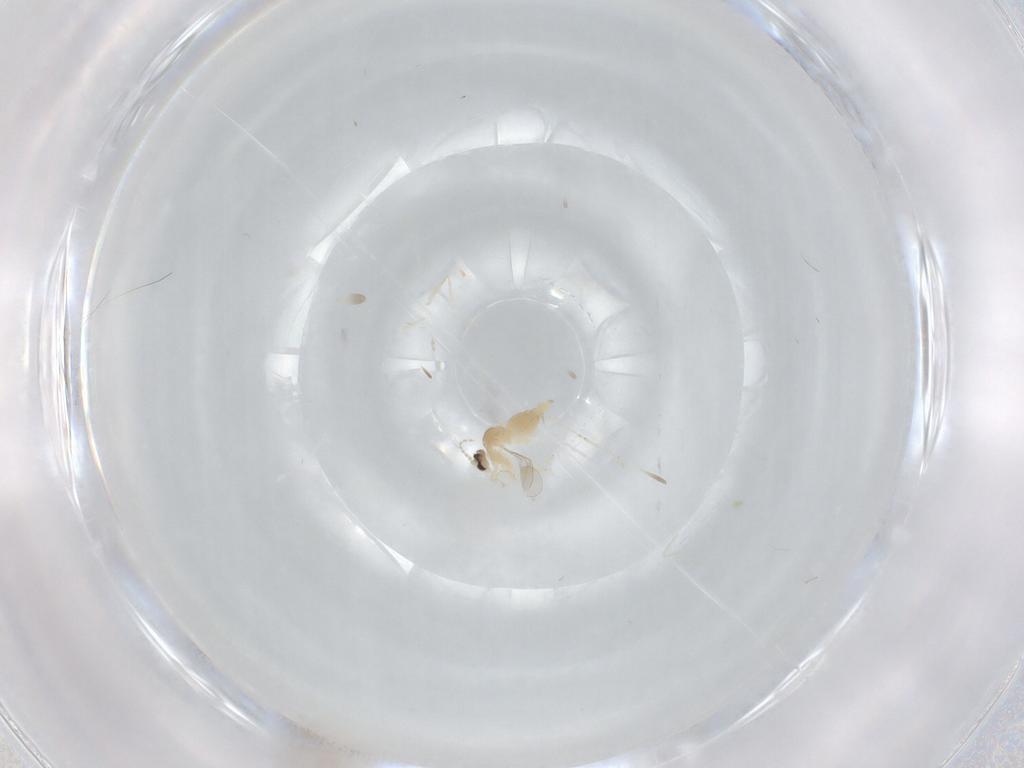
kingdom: Animalia
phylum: Arthropoda
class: Insecta
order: Diptera
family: Cecidomyiidae
